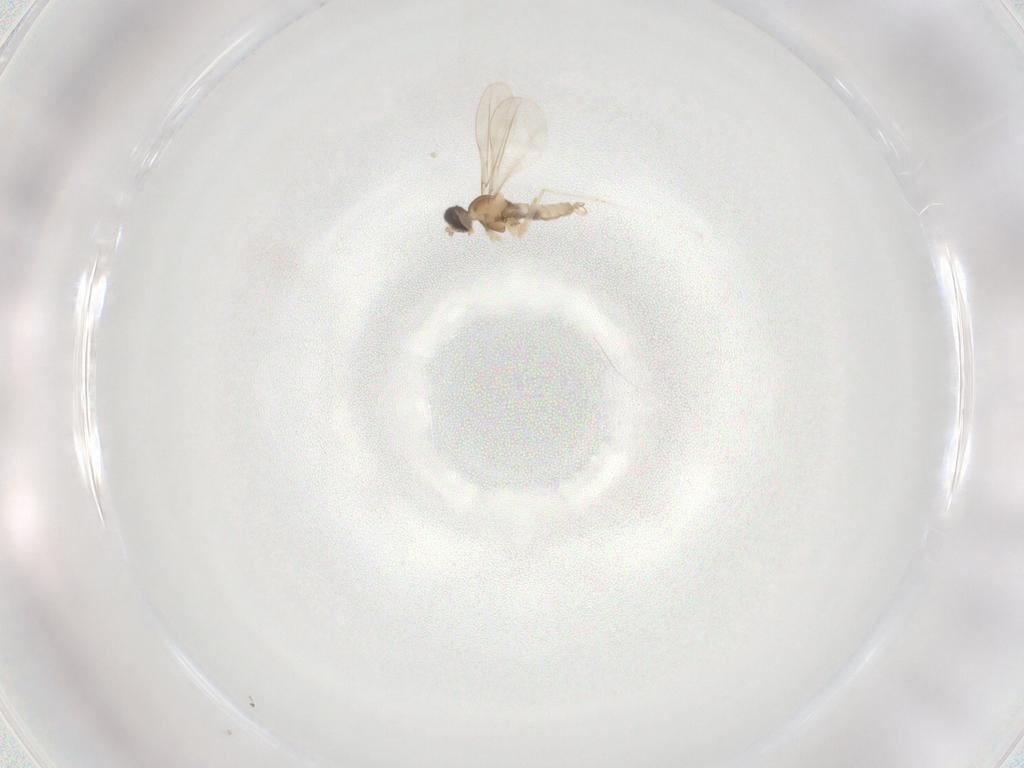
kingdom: Animalia
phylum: Arthropoda
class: Insecta
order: Diptera
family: Cecidomyiidae
